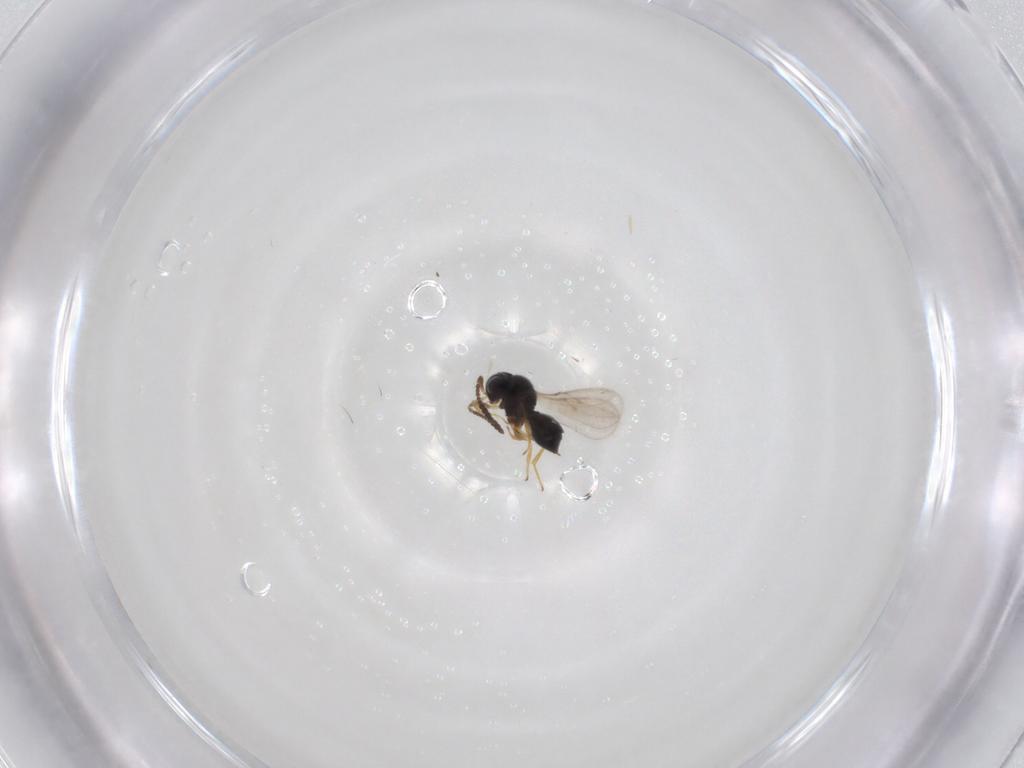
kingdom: Animalia
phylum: Arthropoda
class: Insecta
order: Hymenoptera
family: Scelionidae
